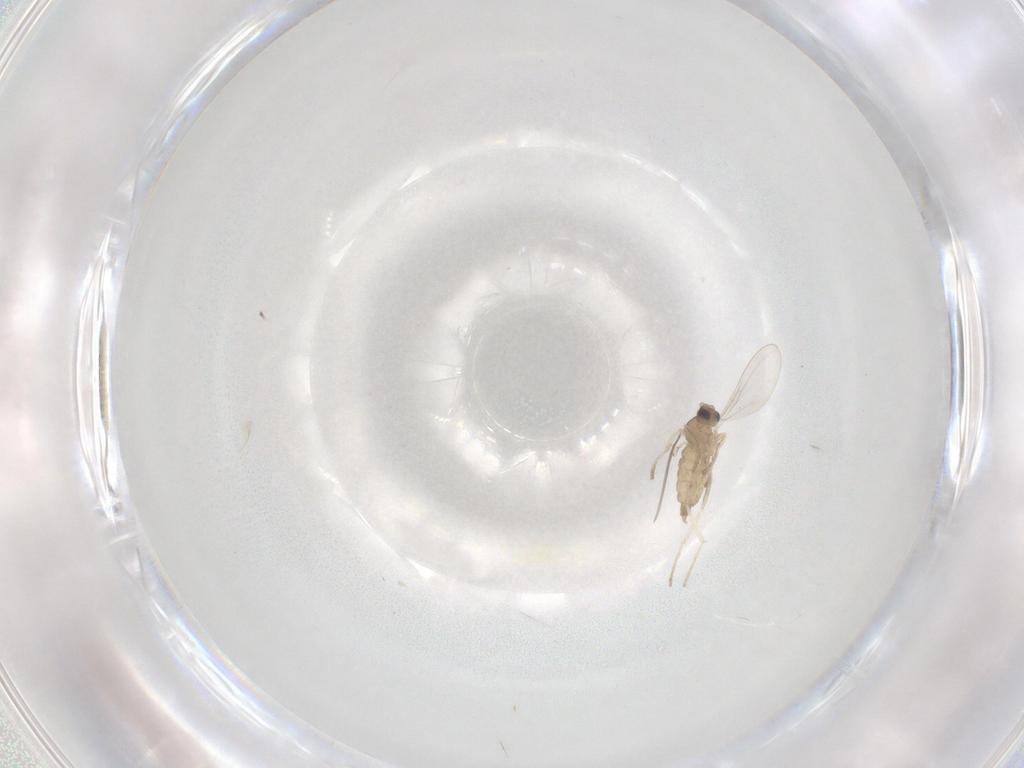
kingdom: Animalia
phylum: Arthropoda
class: Insecta
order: Diptera
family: Cecidomyiidae
